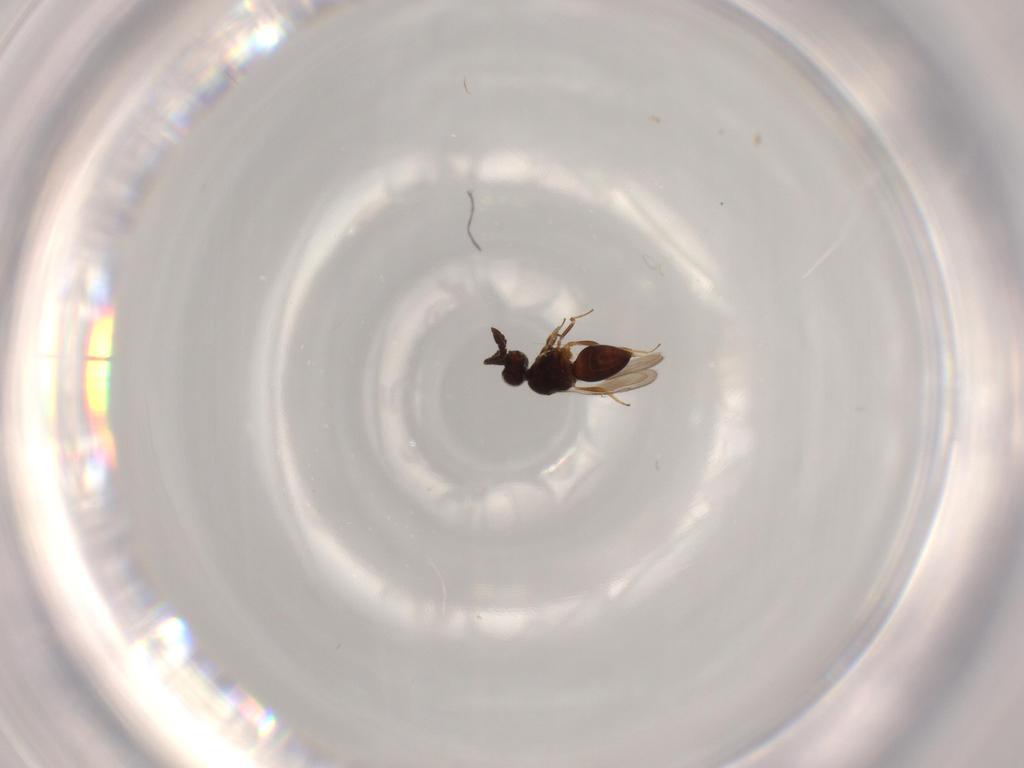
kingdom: Animalia
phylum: Arthropoda
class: Insecta
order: Hymenoptera
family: Ceraphronidae
